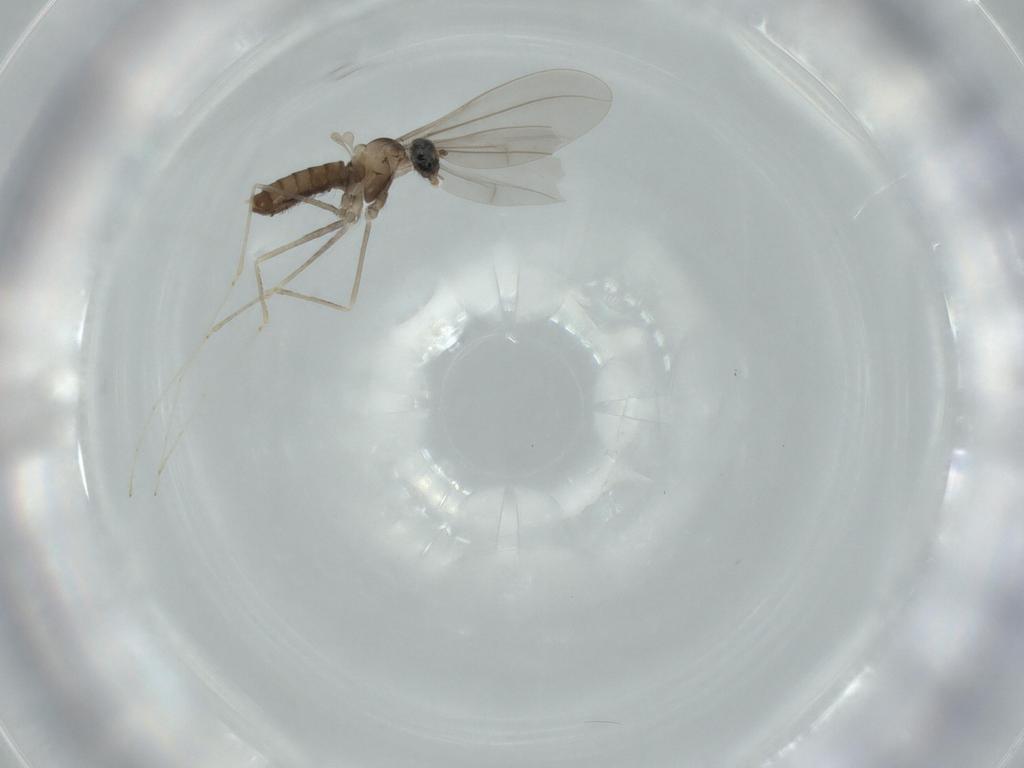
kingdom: Animalia
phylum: Arthropoda
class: Insecta
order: Diptera
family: Cecidomyiidae
